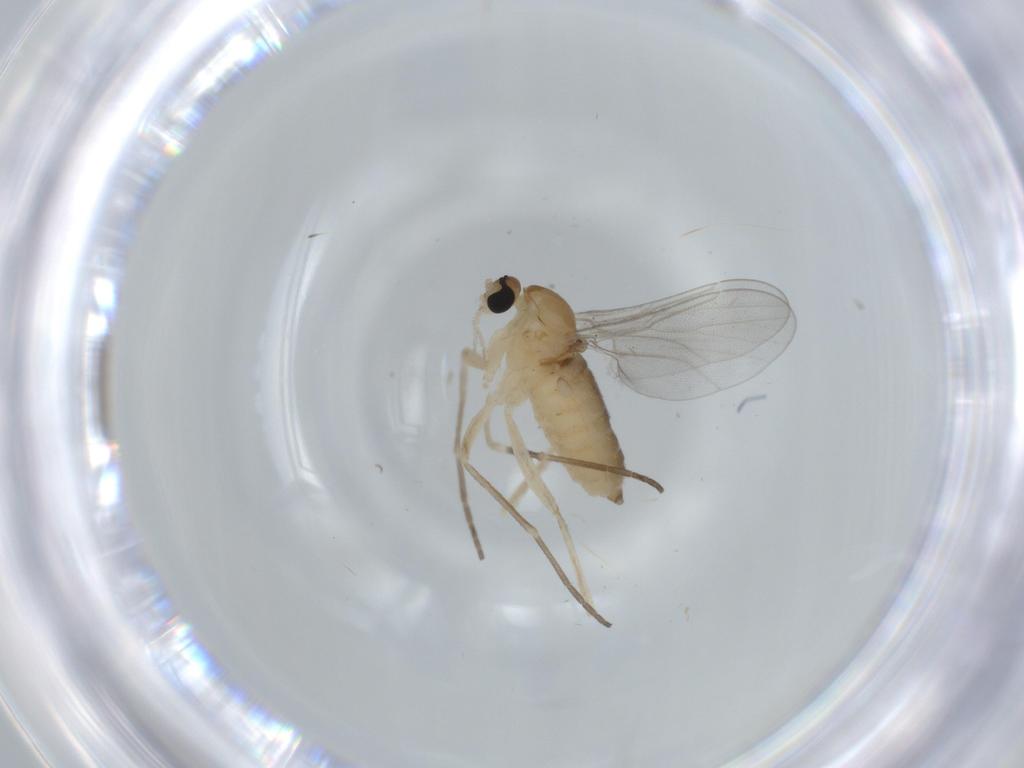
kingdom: Animalia
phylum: Arthropoda
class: Insecta
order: Diptera
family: Cecidomyiidae
